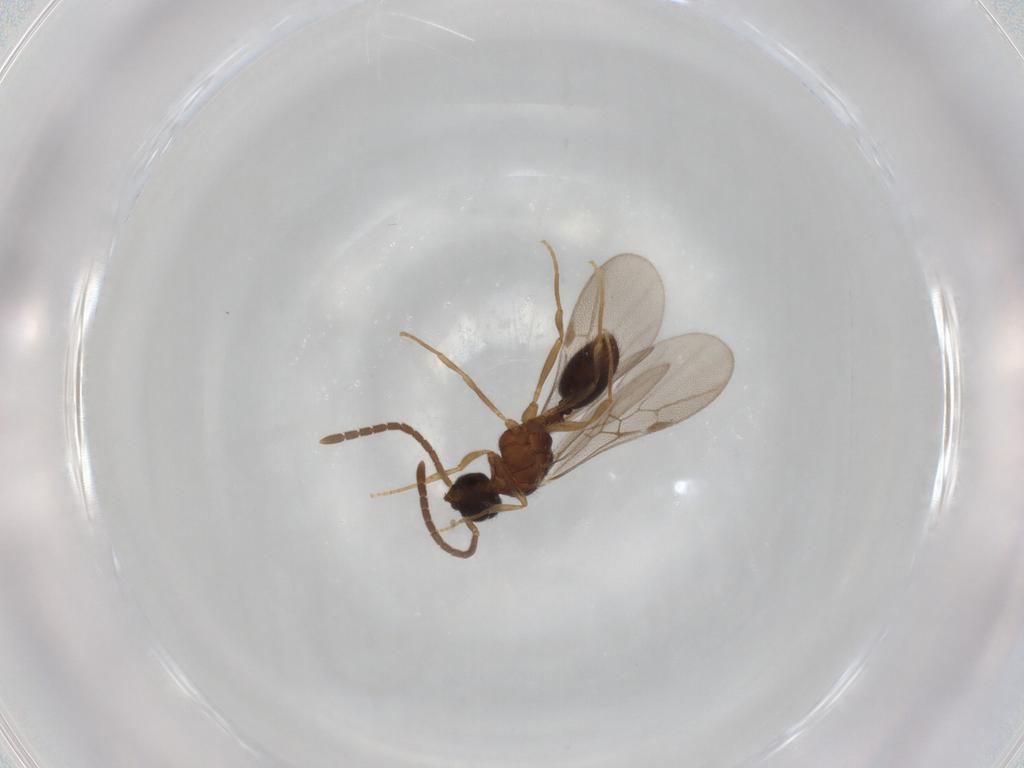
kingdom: Animalia
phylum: Arthropoda
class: Insecta
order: Hymenoptera
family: Formicidae
